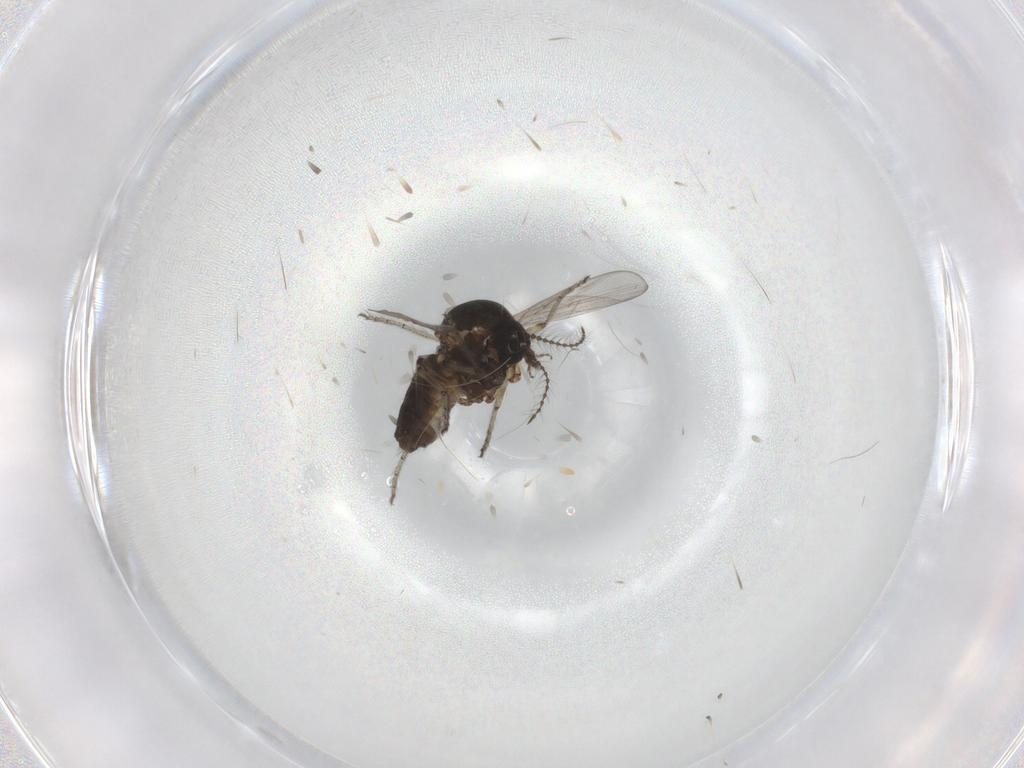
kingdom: Animalia
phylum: Arthropoda
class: Insecta
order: Diptera
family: Ceratopogonidae
